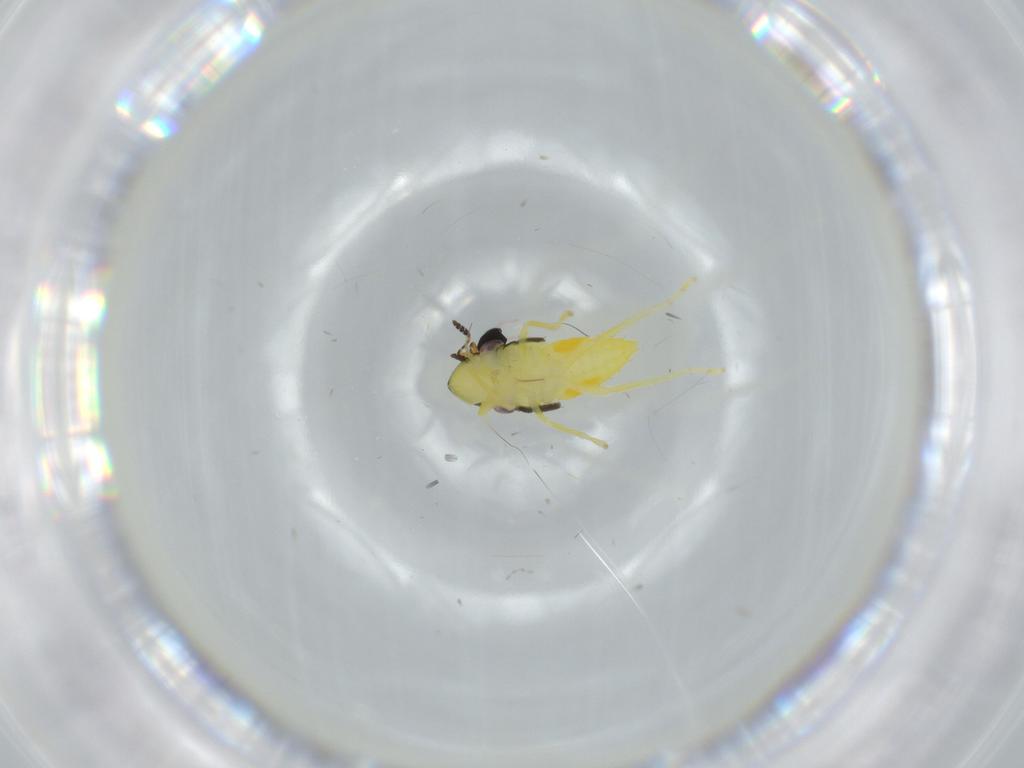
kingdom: Animalia
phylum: Arthropoda
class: Insecta
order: Hemiptera
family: Cicadellidae
